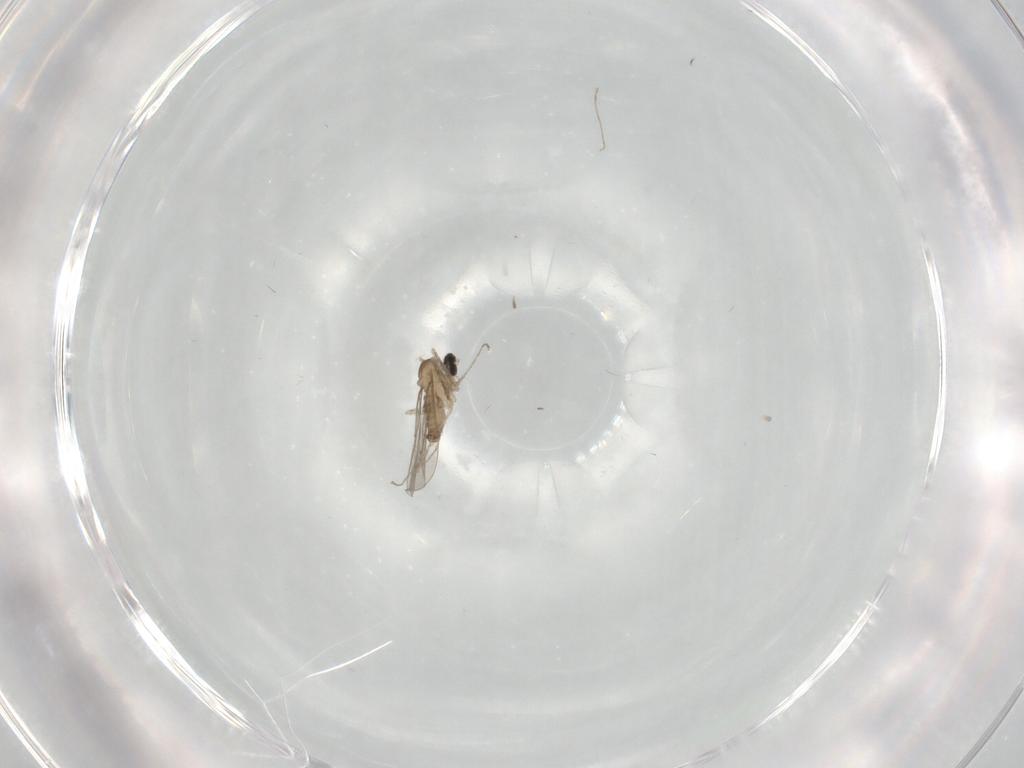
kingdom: Animalia
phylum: Arthropoda
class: Insecta
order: Diptera
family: Cecidomyiidae
